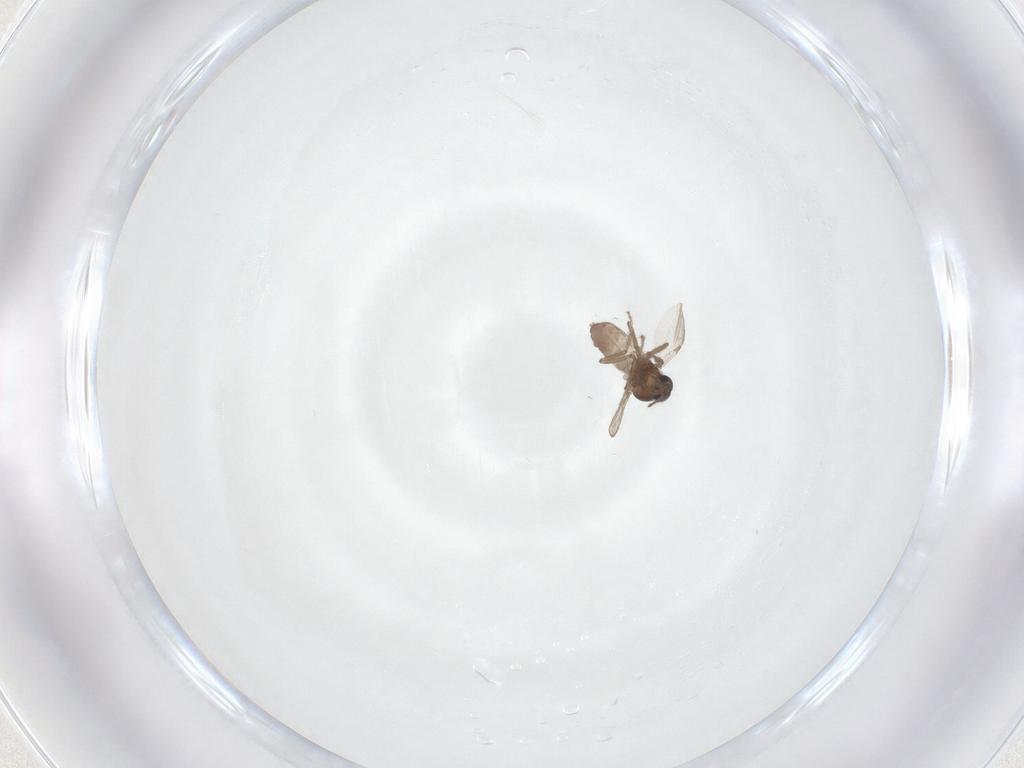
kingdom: Animalia
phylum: Arthropoda
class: Insecta
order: Diptera
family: Ceratopogonidae
